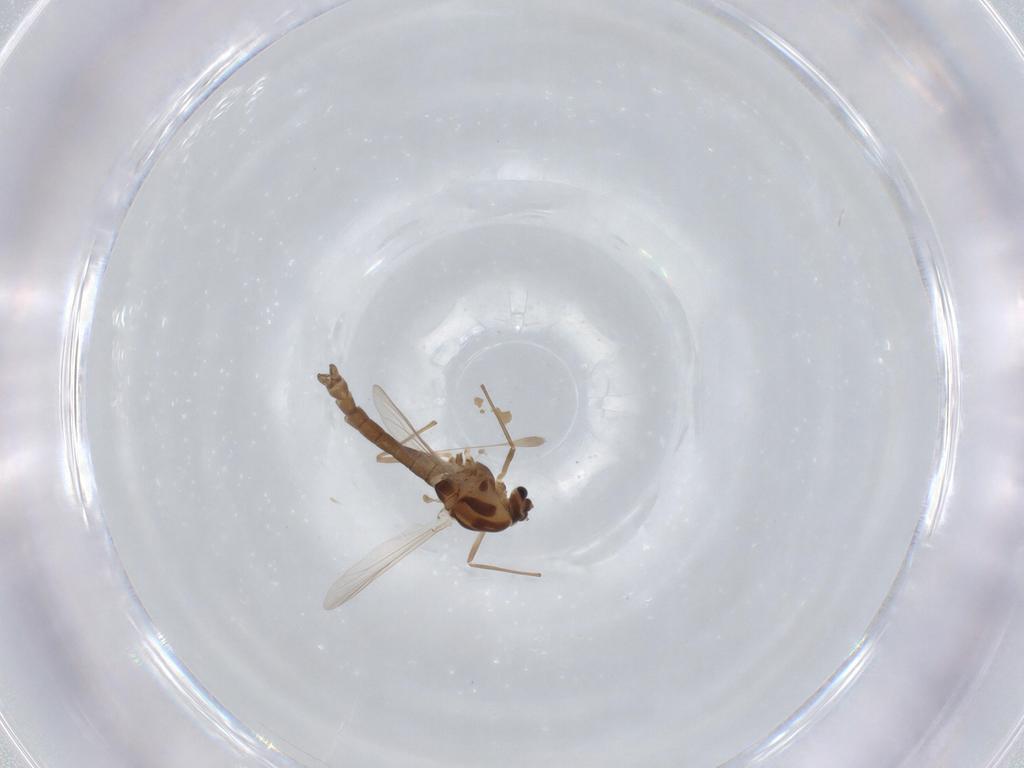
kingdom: Animalia
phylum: Arthropoda
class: Insecta
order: Diptera
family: Chironomidae
